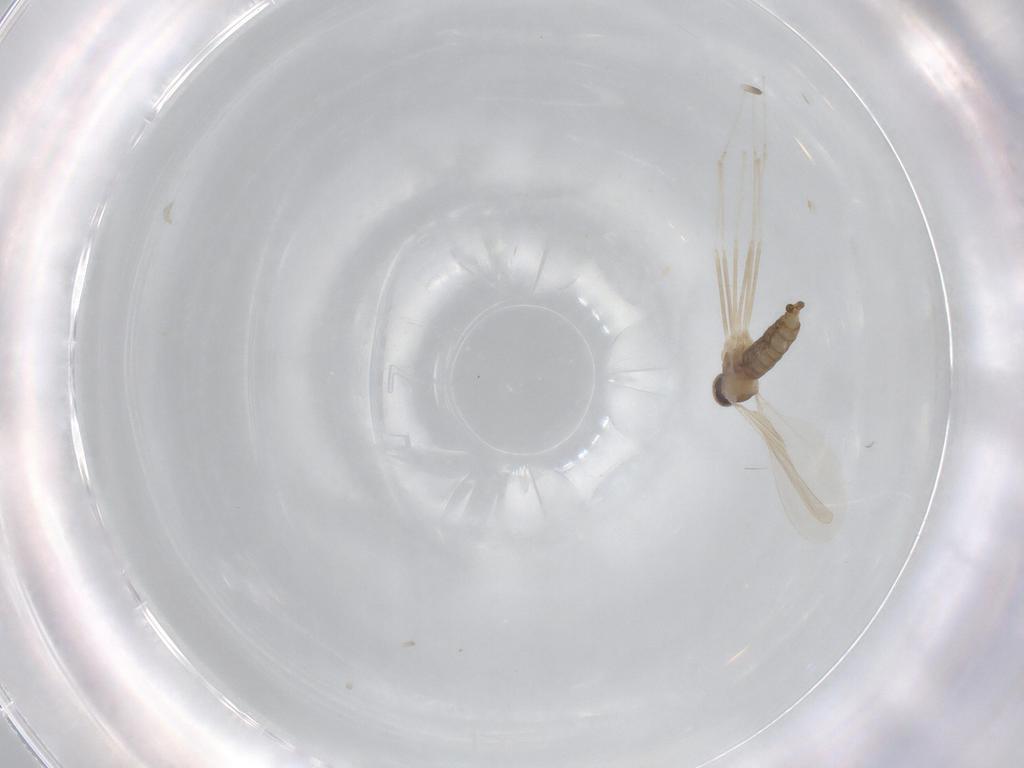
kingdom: Animalia
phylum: Arthropoda
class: Insecta
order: Diptera
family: Cecidomyiidae
